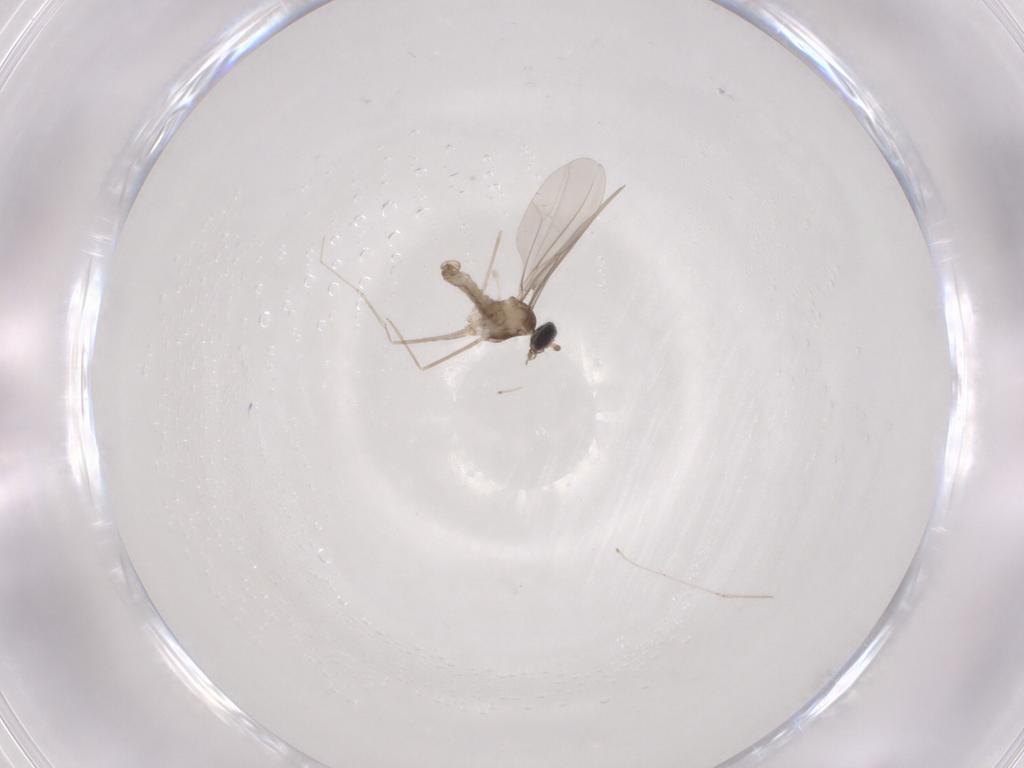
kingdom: Animalia
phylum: Arthropoda
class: Insecta
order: Diptera
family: Cecidomyiidae
